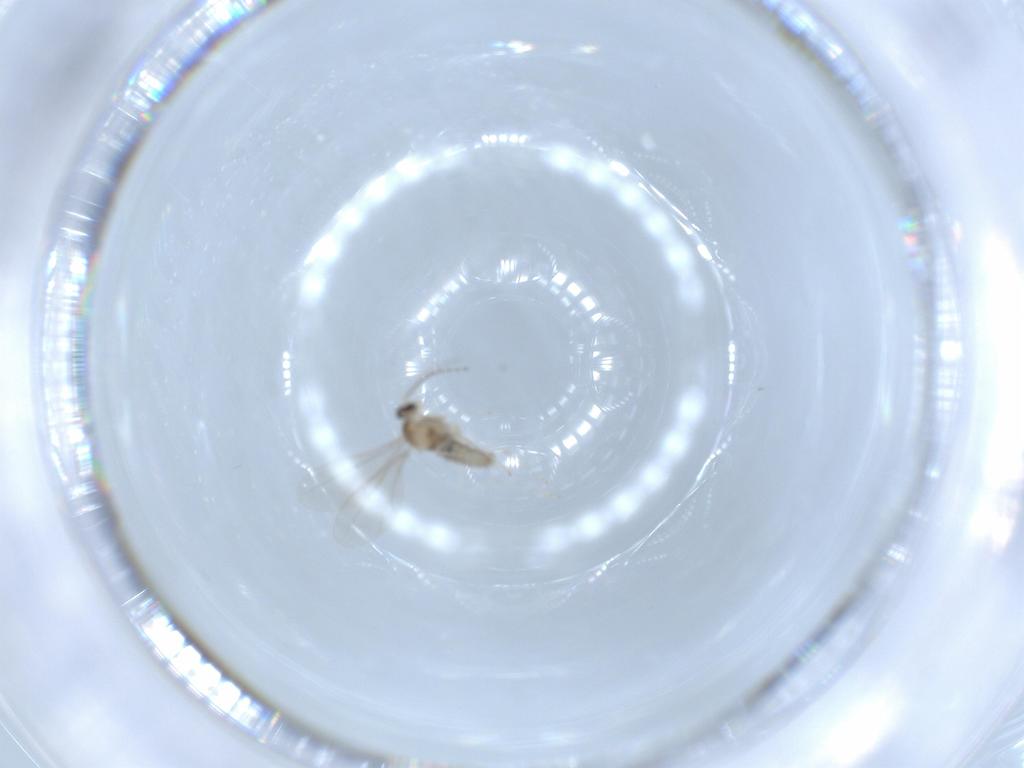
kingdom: Animalia
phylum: Arthropoda
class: Insecta
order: Diptera
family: Cecidomyiidae
